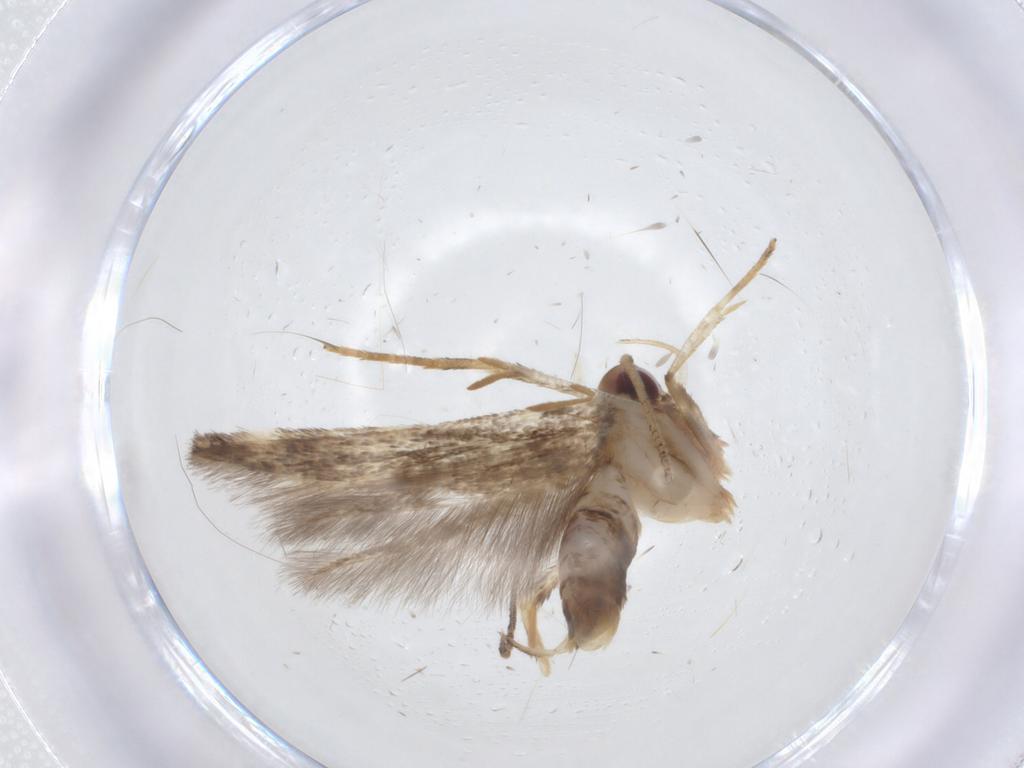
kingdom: Animalia
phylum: Arthropoda
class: Insecta
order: Lepidoptera
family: Cosmopterigidae
